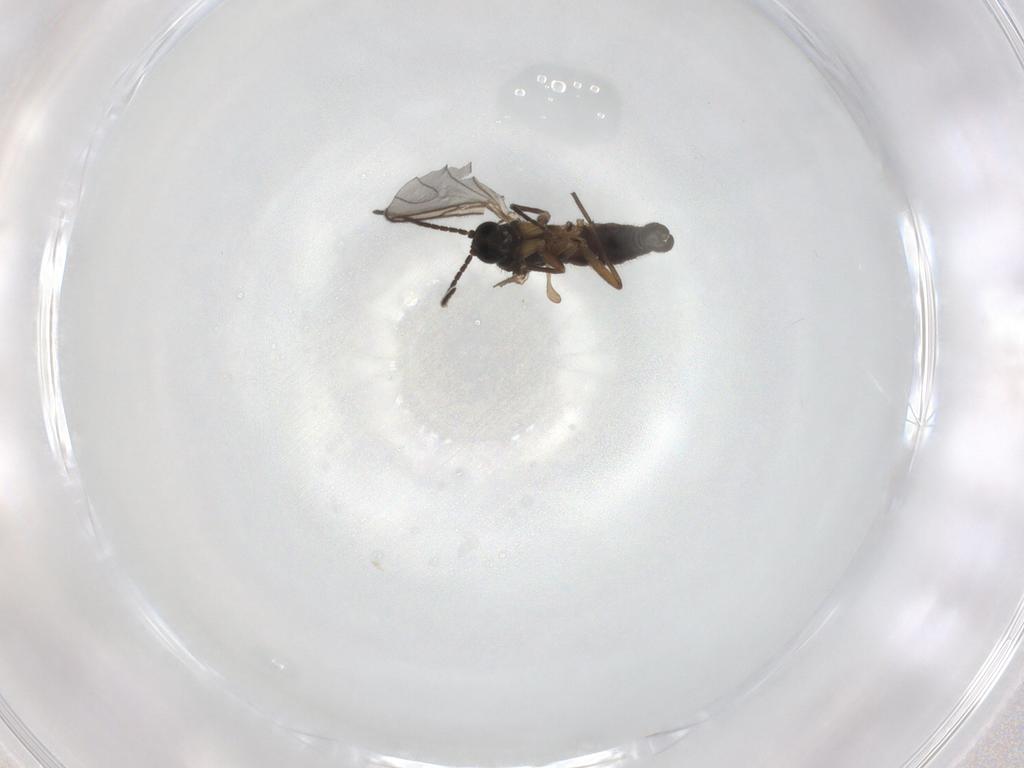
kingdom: Animalia
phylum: Arthropoda
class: Insecta
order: Diptera
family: Sciaridae
